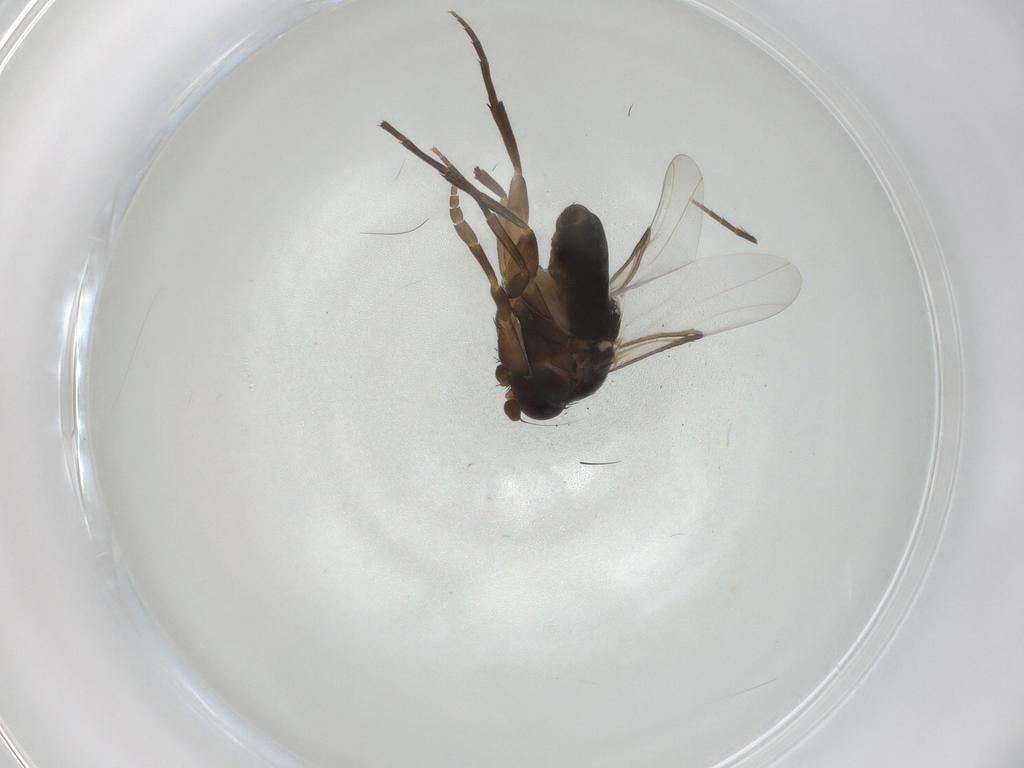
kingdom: Animalia
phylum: Arthropoda
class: Insecta
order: Diptera
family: Phoridae
